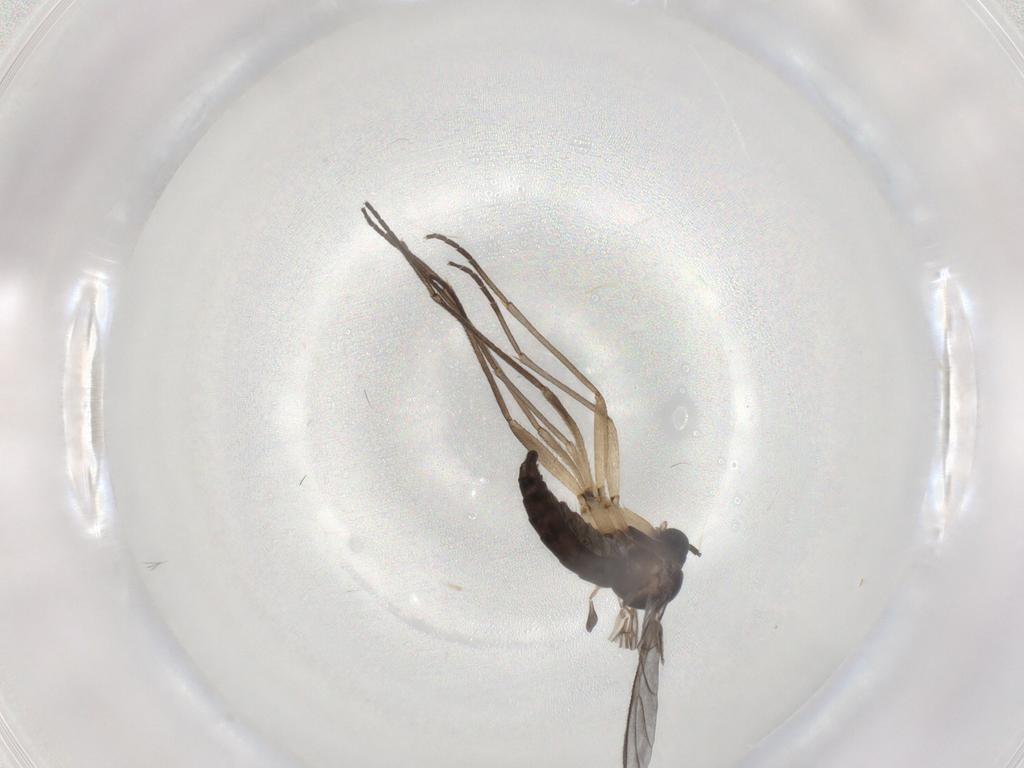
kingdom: Animalia
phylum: Arthropoda
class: Insecta
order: Diptera
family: Sciaridae
